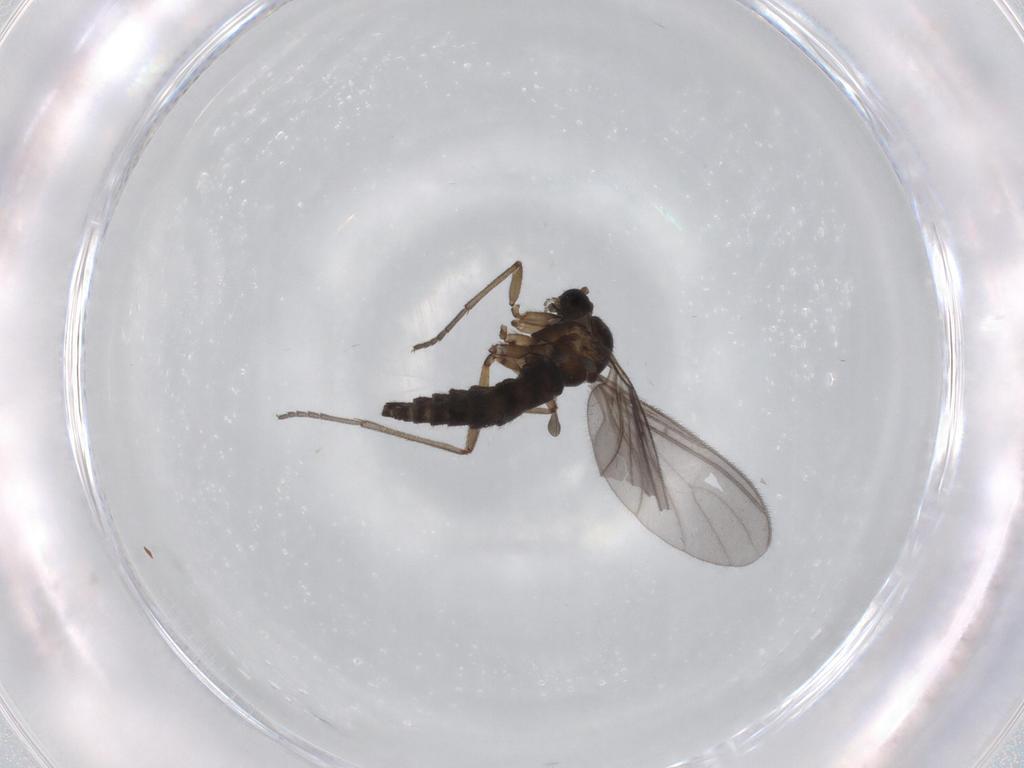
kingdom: Animalia
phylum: Arthropoda
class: Insecta
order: Diptera
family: Sciaridae
